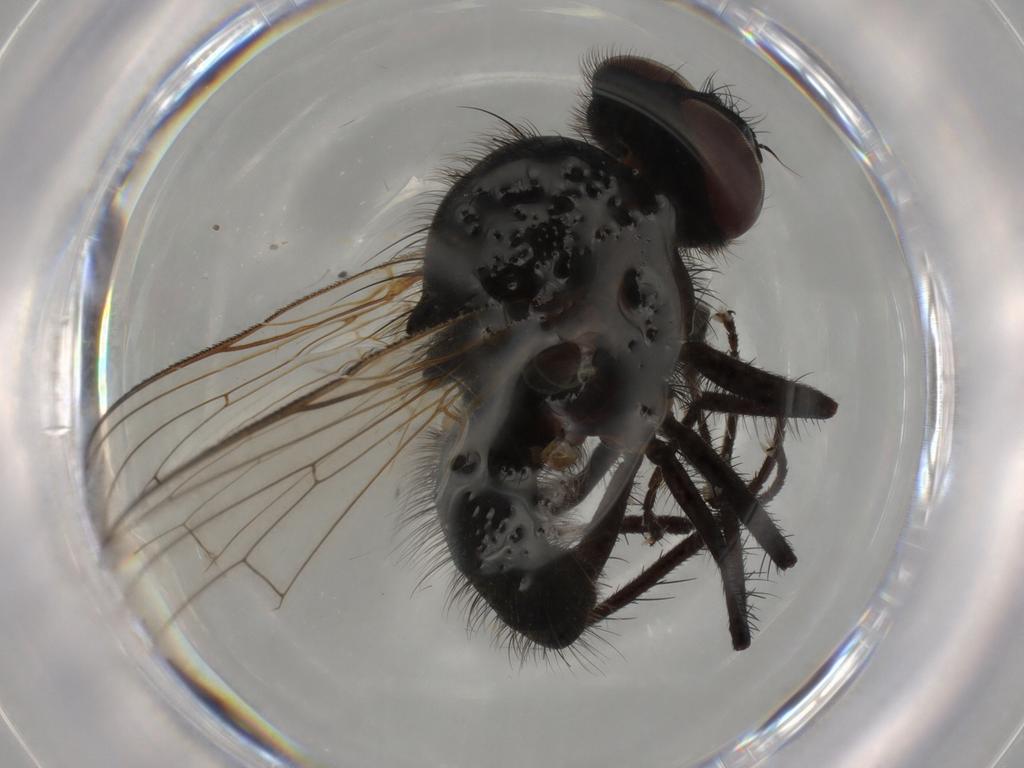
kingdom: Animalia
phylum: Arthropoda
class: Insecta
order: Diptera
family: Anthomyiidae
